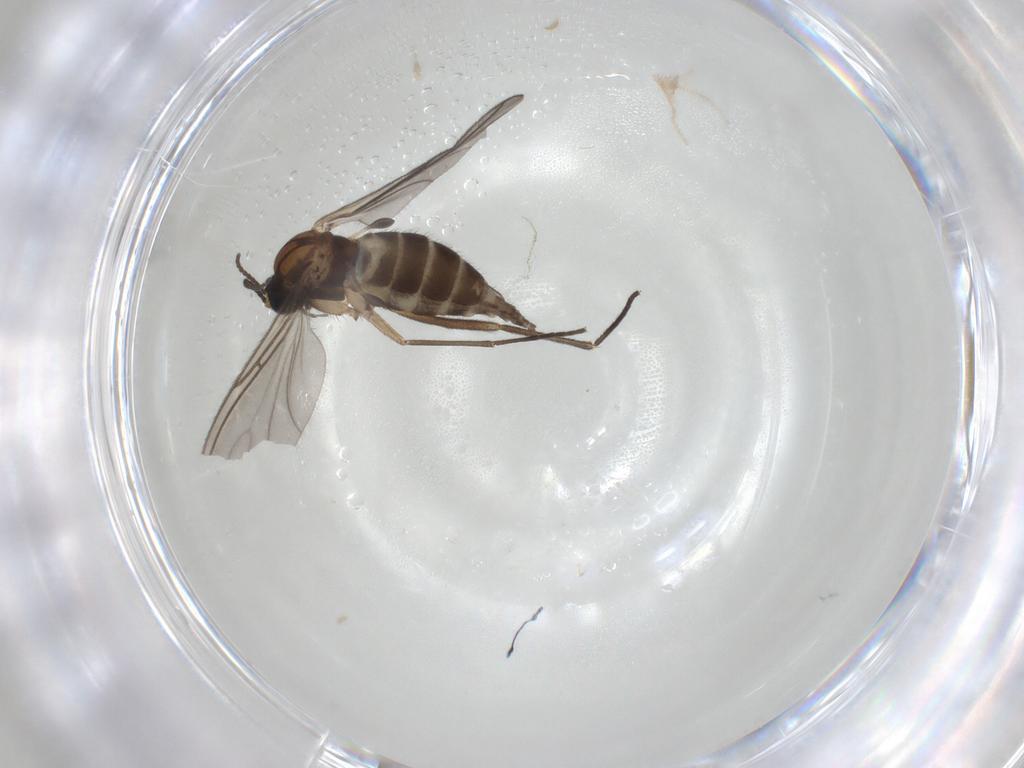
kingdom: Animalia
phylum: Arthropoda
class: Insecta
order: Diptera
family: Sciaridae
